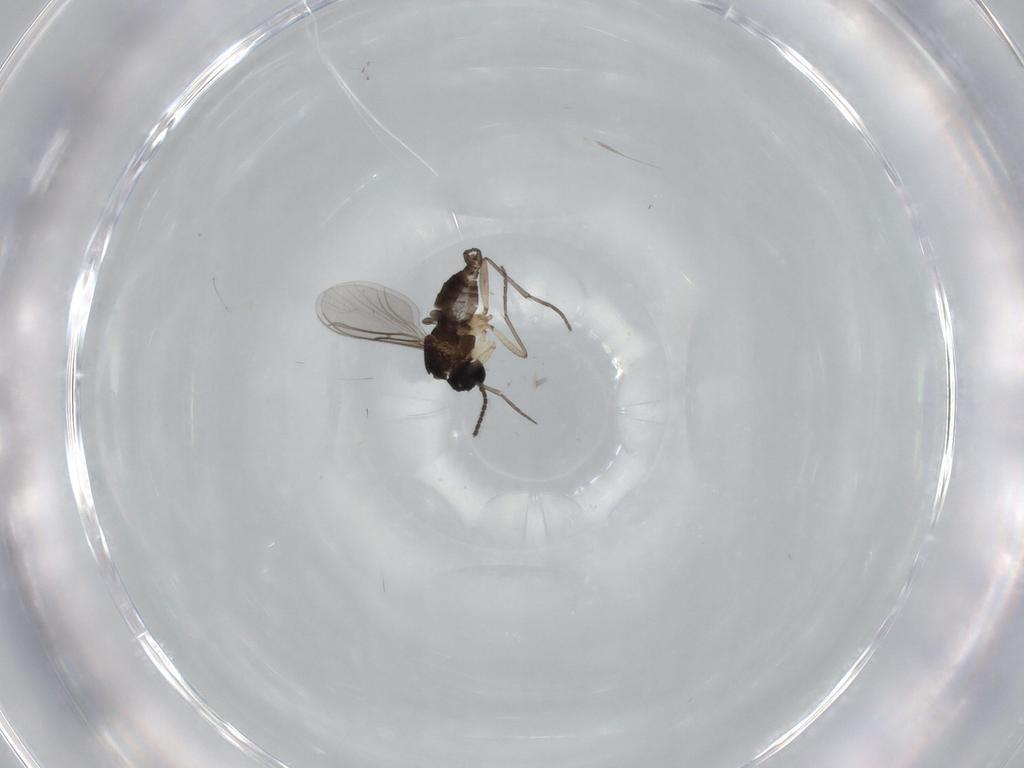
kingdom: Animalia
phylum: Arthropoda
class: Insecta
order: Diptera
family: Sciaridae
